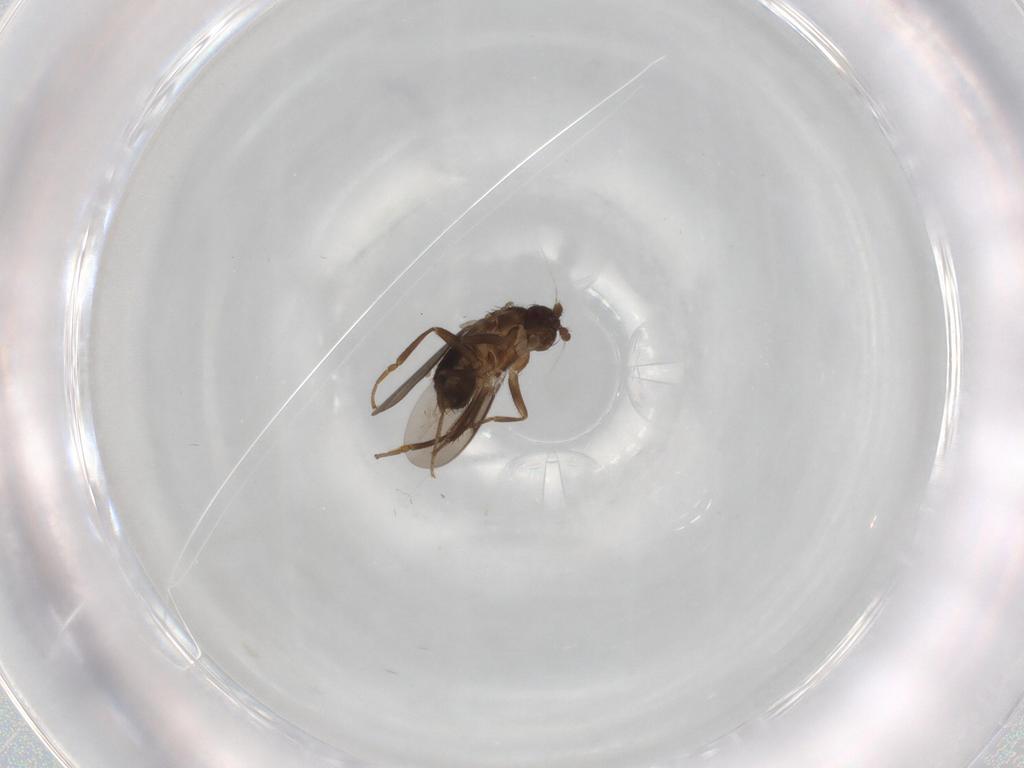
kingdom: Animalia
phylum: Arthropoda
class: Insecta
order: Diptera
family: Sphaeroceridae
